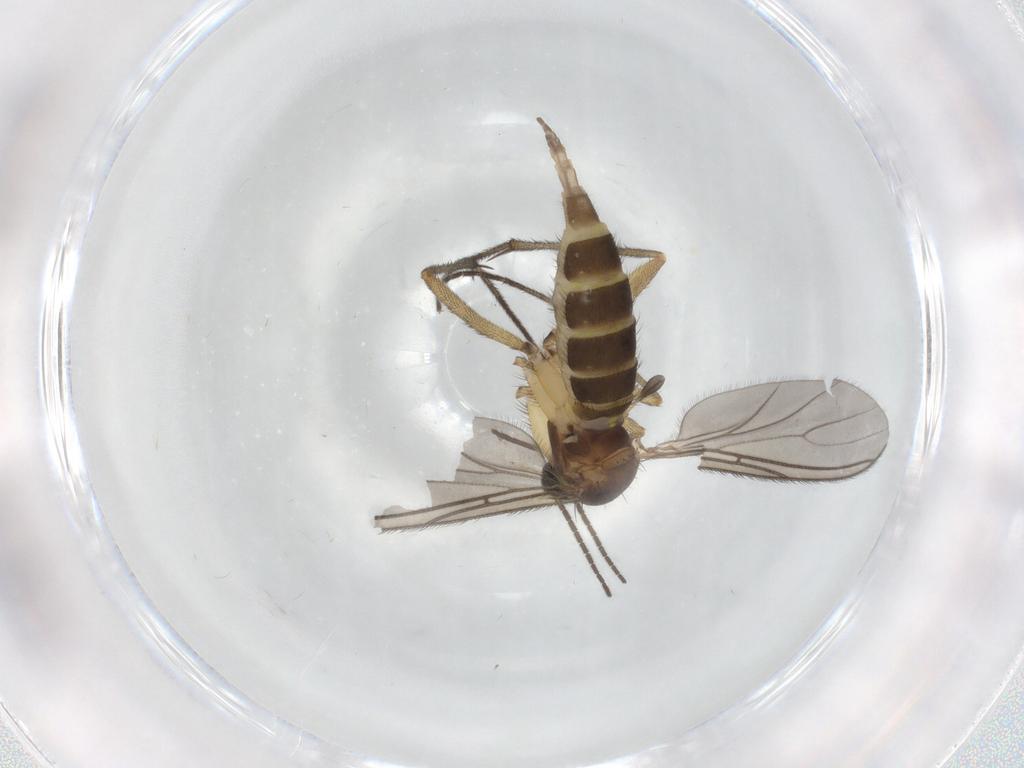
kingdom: Animalia
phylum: Arthropoda
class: Insecta
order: Diptera
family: Sciaridae
